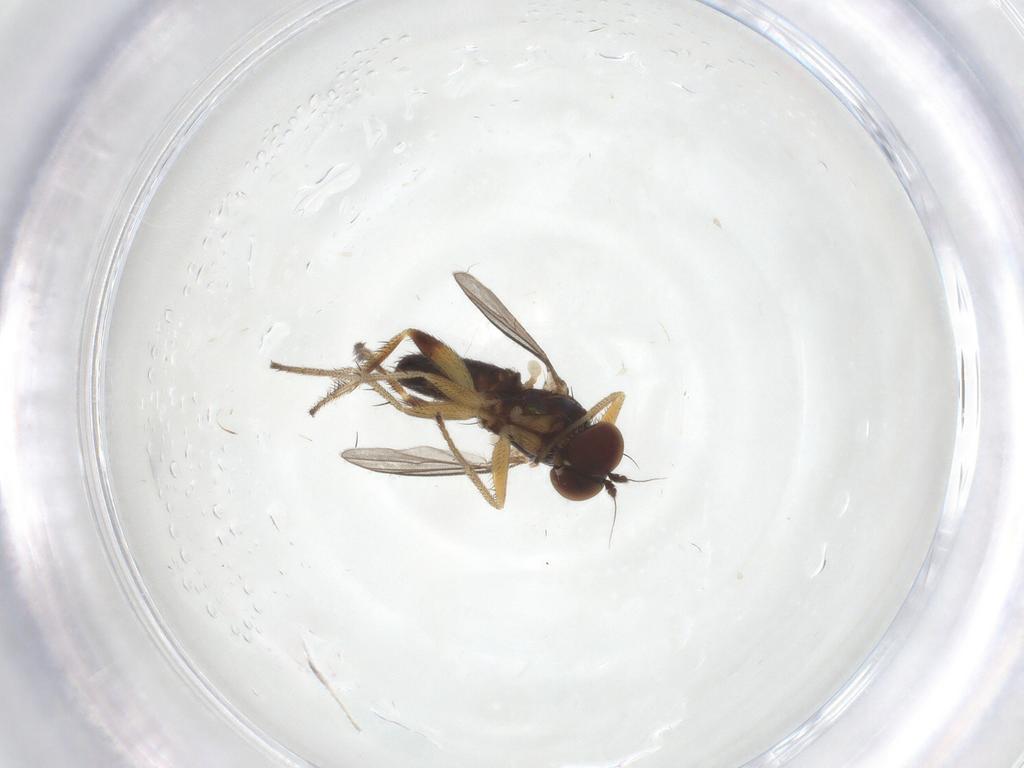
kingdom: Animalia
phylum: Arthropoda
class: Insecta
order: Diptera
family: Dolichopodidae
